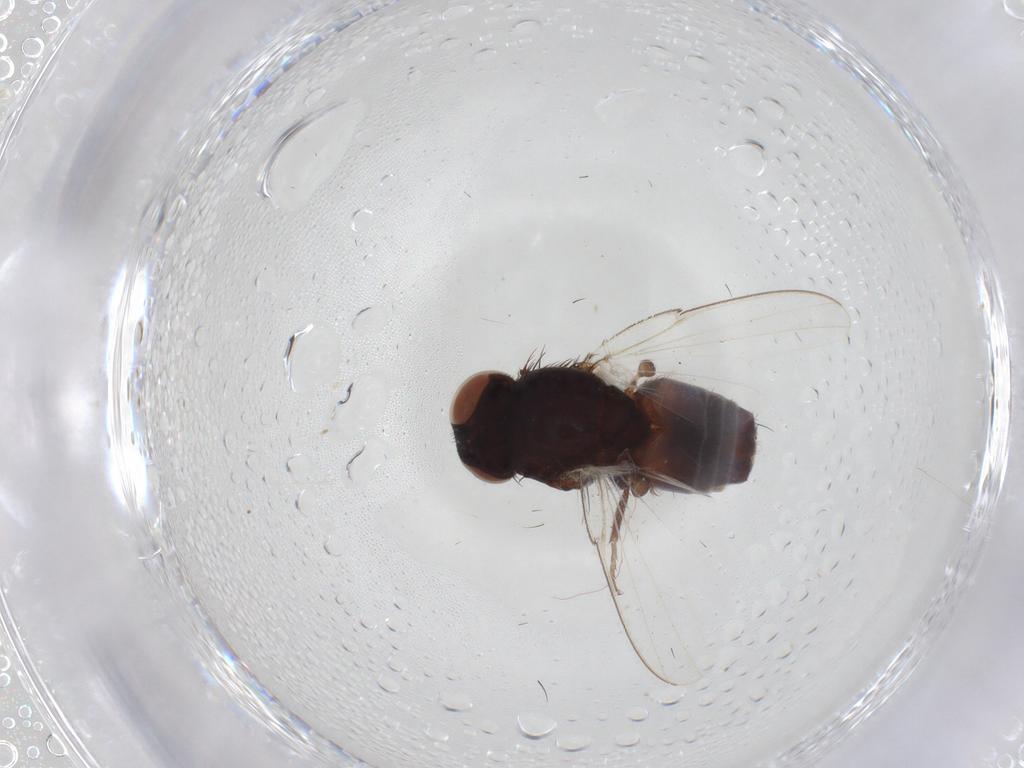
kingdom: Animalia
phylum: Arthropoda
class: Insecta
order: Diptera
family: Milichiidae
